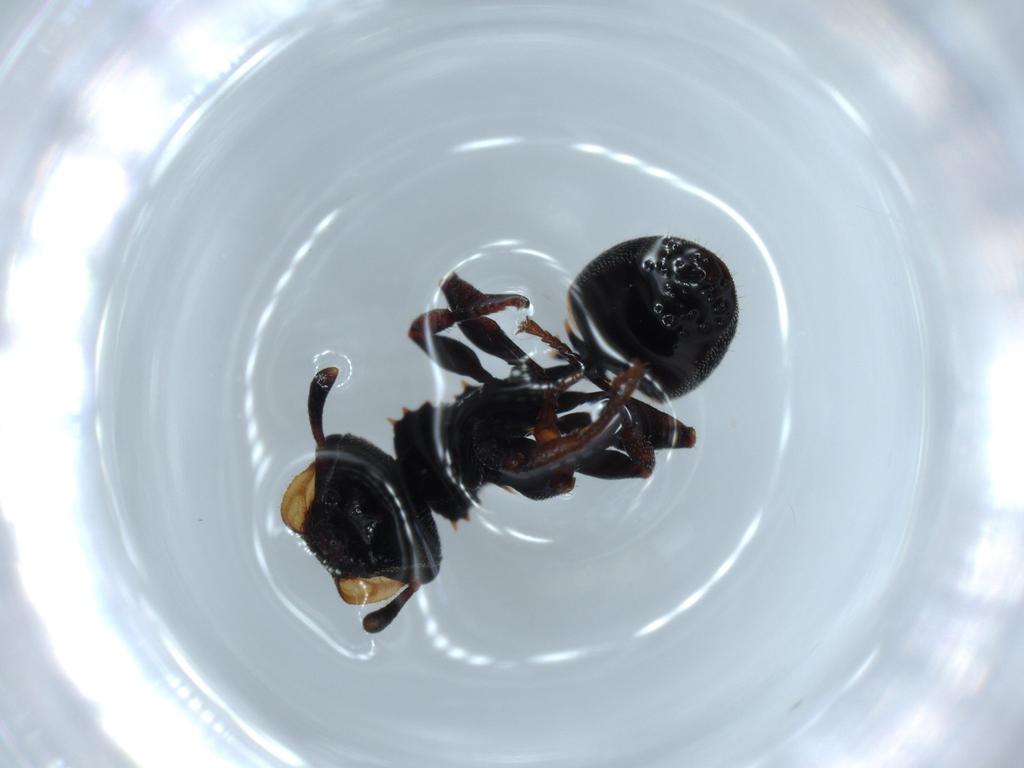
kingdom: Animalia
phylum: Arthropoda
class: Insecta
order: Hymenoptera
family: Formicidae
